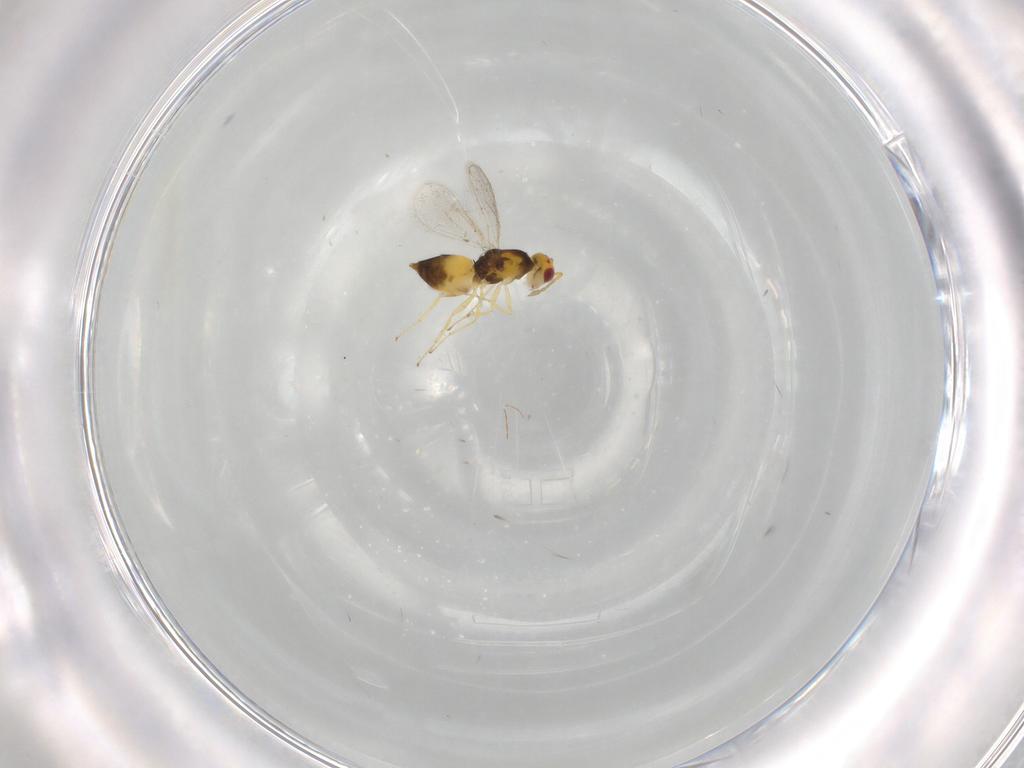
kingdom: Animalia
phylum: Arthropoda
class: Insecta
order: Hymenoptera
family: Eulophidae
